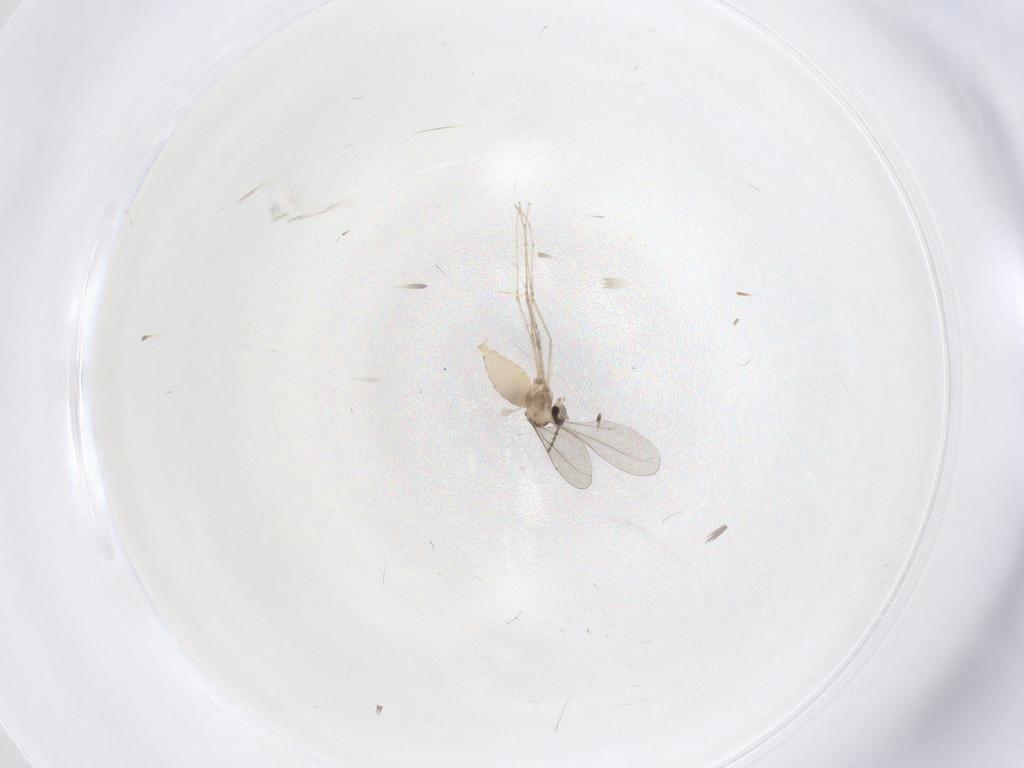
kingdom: Animalia
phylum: Arthropoda
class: Insecta
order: Diptera
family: Cecidomyiidae
